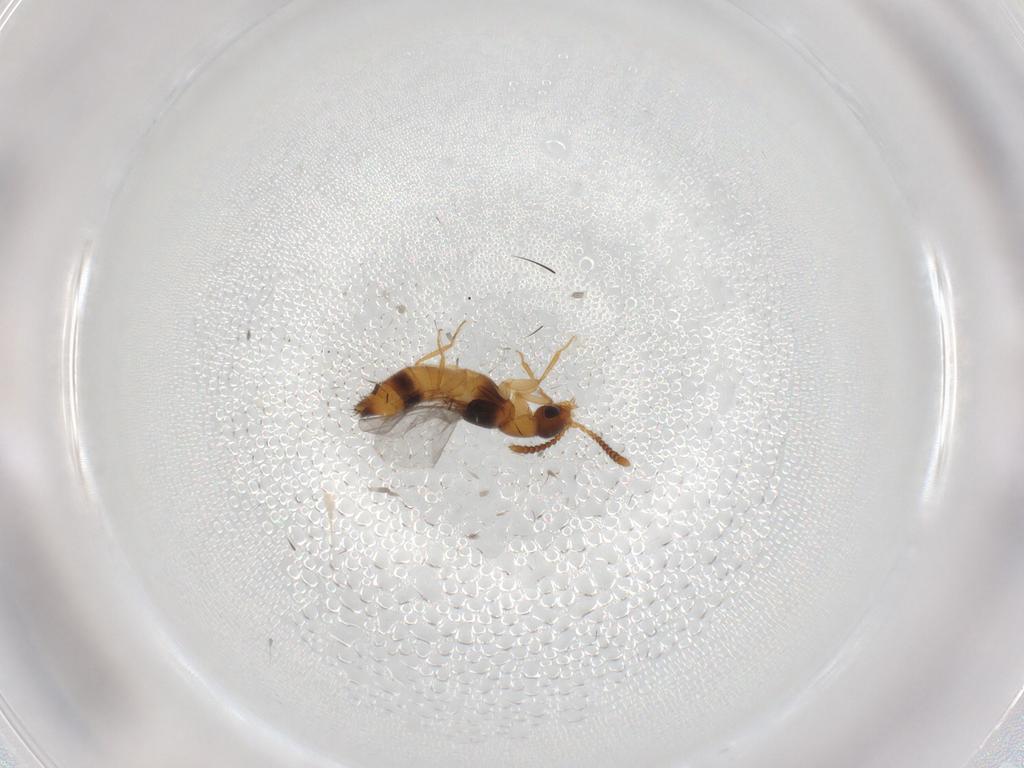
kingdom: Animalia
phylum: Arthropoda
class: Insecta
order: Coleoptera
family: Staphylinidae
